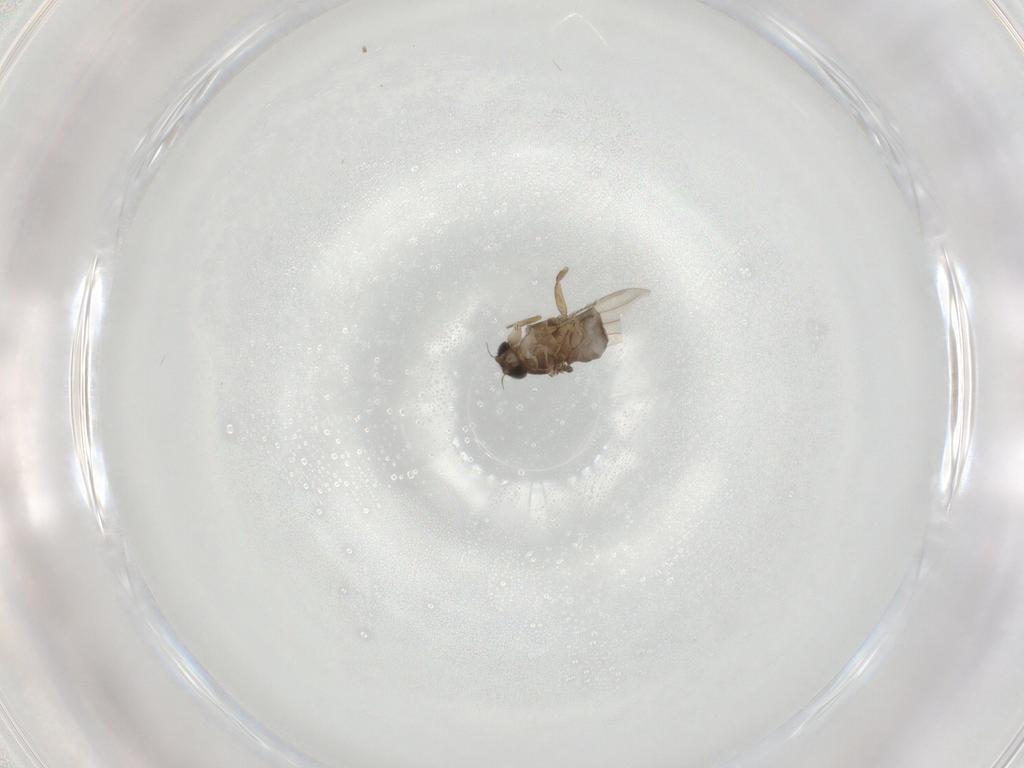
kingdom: Animalia
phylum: Arthropoda
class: Insecta
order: Diptera
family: Phoridae
